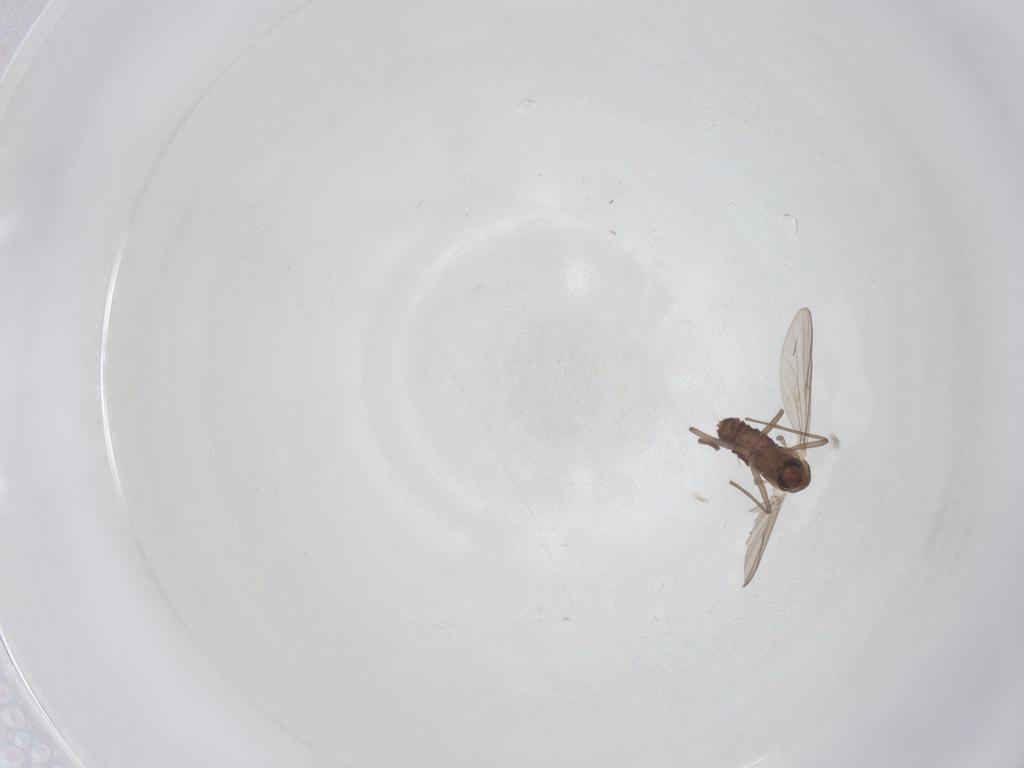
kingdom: Animalia
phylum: Arthropoda
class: Insecta
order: Diptera
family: Chironomidae
